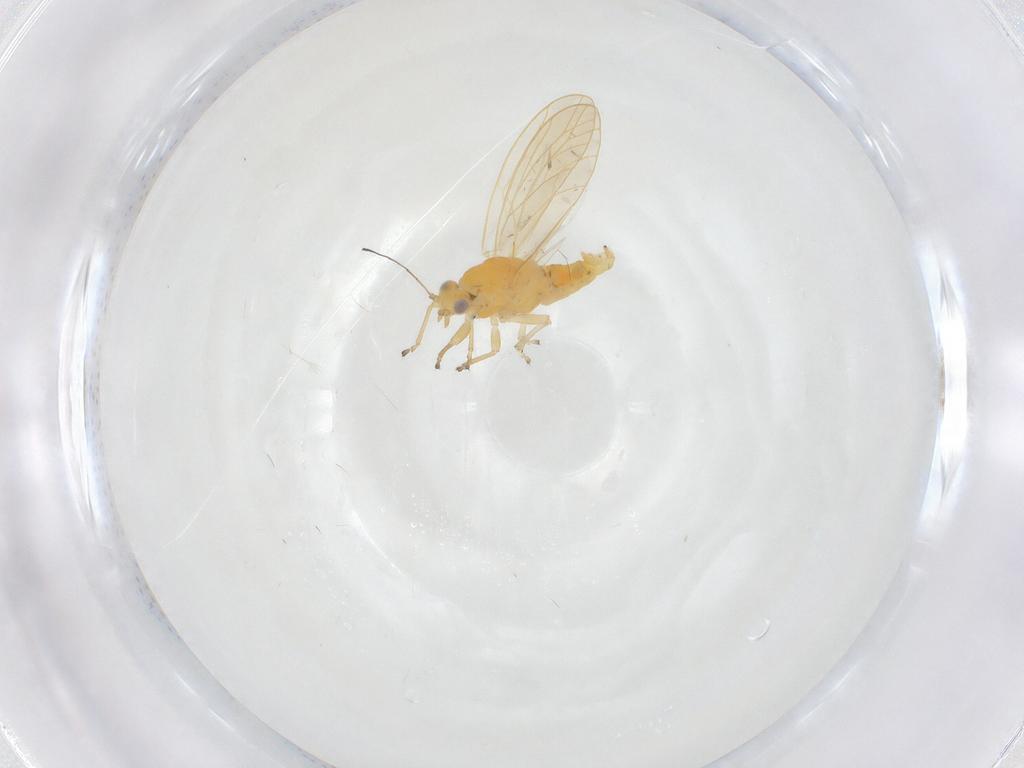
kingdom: Animalia
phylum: Arthropoda
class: Insecta
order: Hemiptera
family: Triozidae
